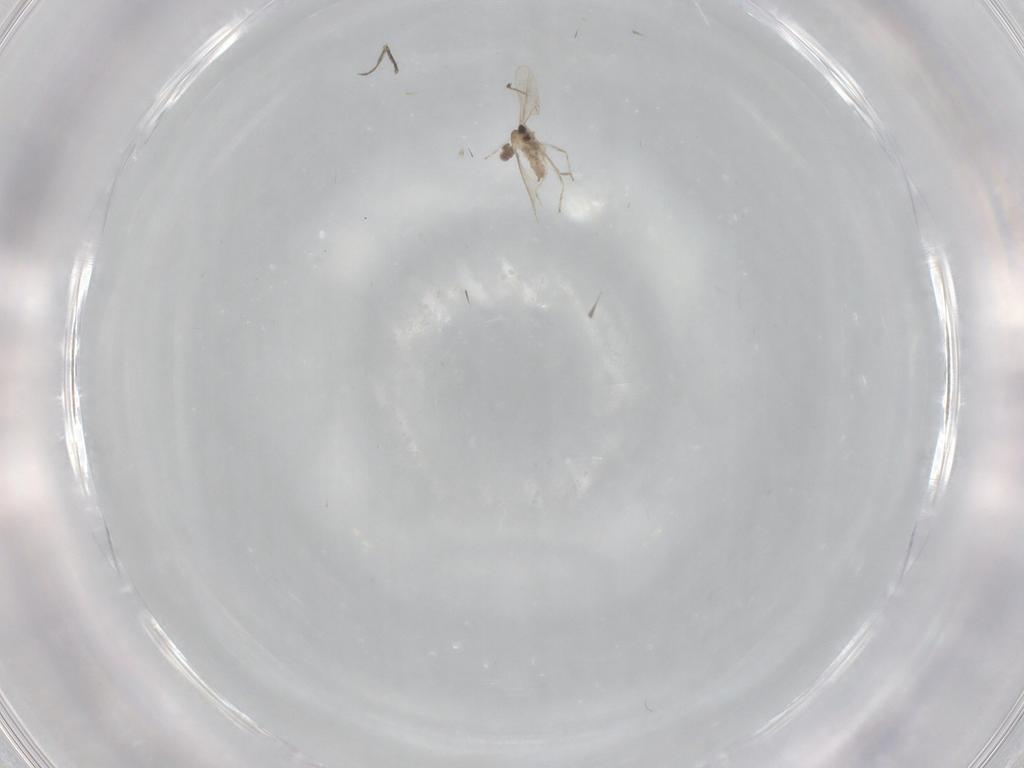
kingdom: Animalia
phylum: Arthropoda
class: Insecta
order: Diptera
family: Cecidomyiidae
